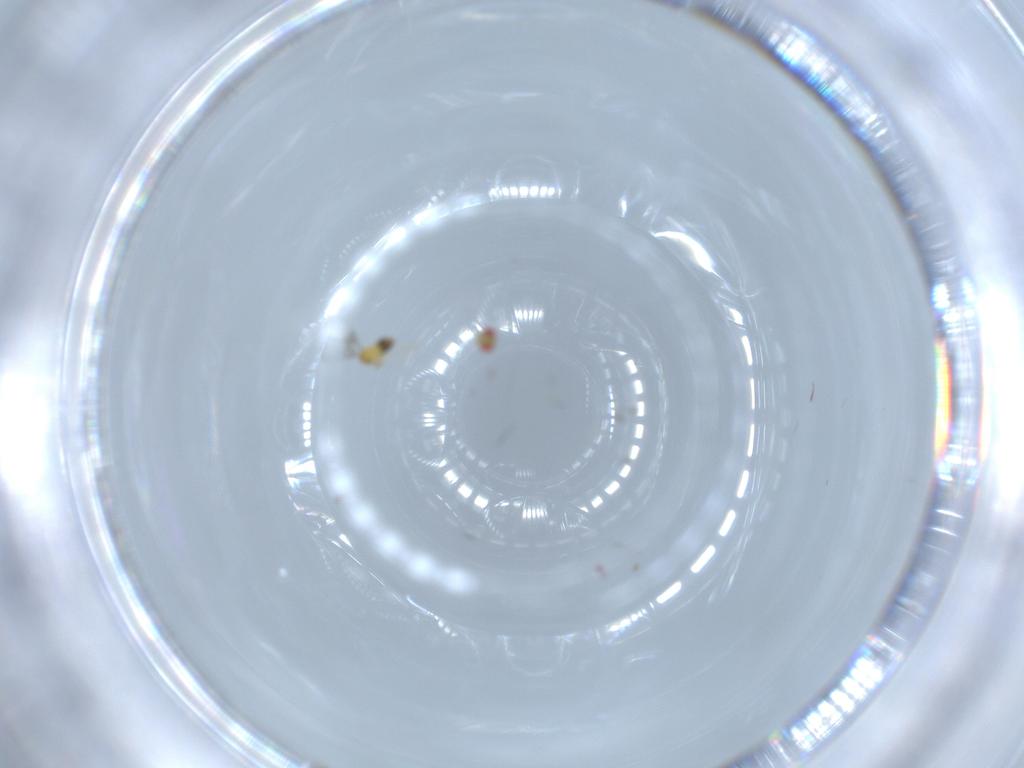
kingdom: Animalia
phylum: Arthropoda
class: Insecta
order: Hymenoptera
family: Trichogrammatidae
